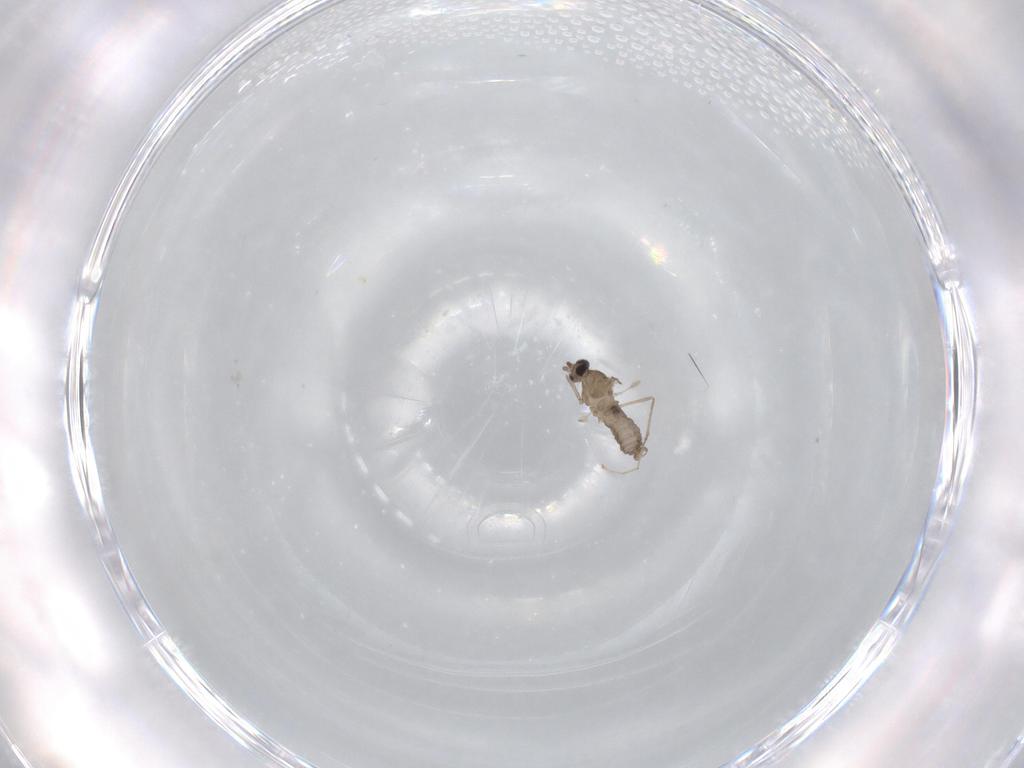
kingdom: Animalia
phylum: Arthropoda
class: Insecta
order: Diptera
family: Cecidomyiidae
